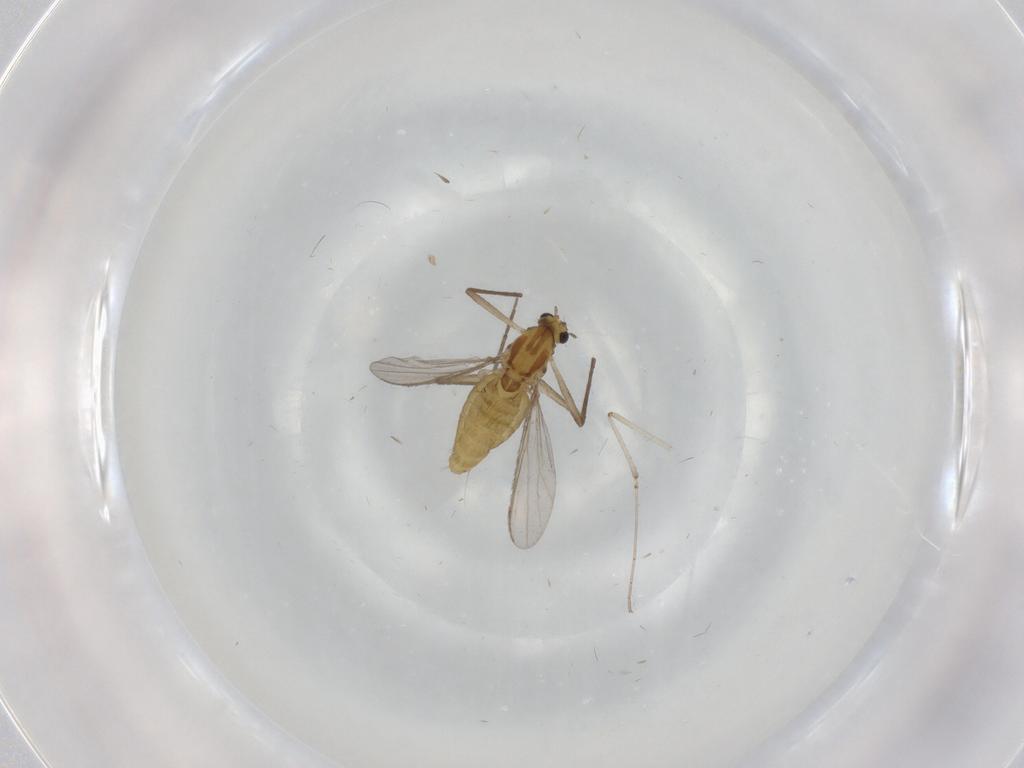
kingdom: Animalia
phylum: Arthropoda
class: Insecta
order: Diptera
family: Chironomidae
